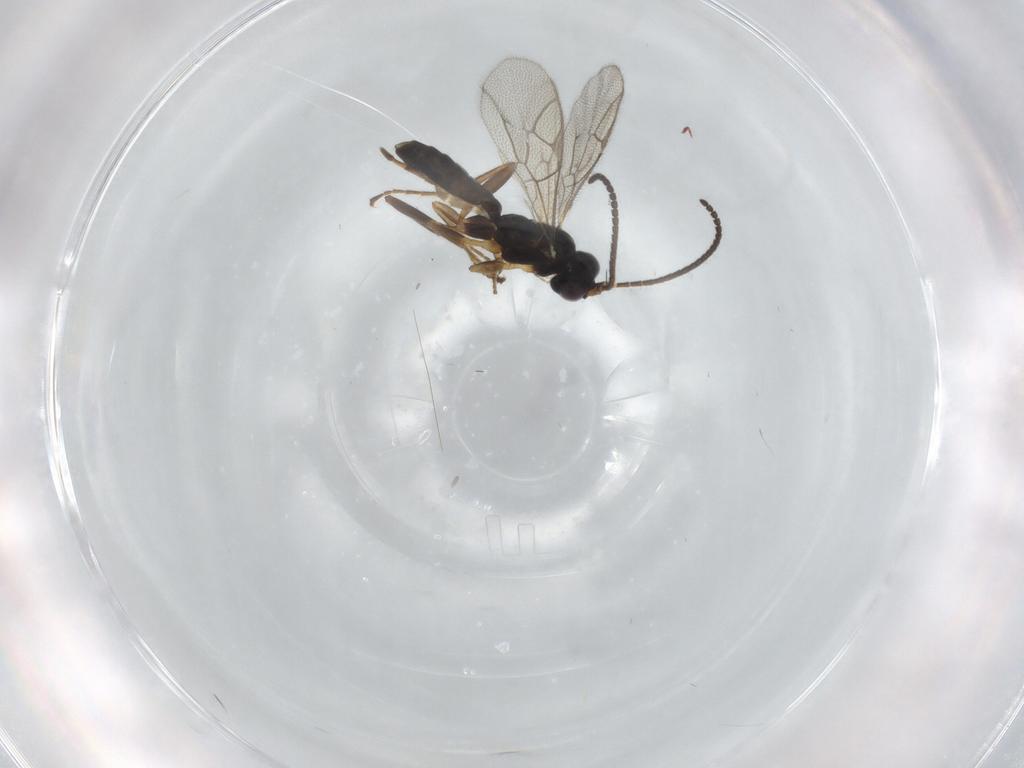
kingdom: Animalia
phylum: Arthropoda
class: Insecta
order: Hymenoptera
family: Ichneumonidae
